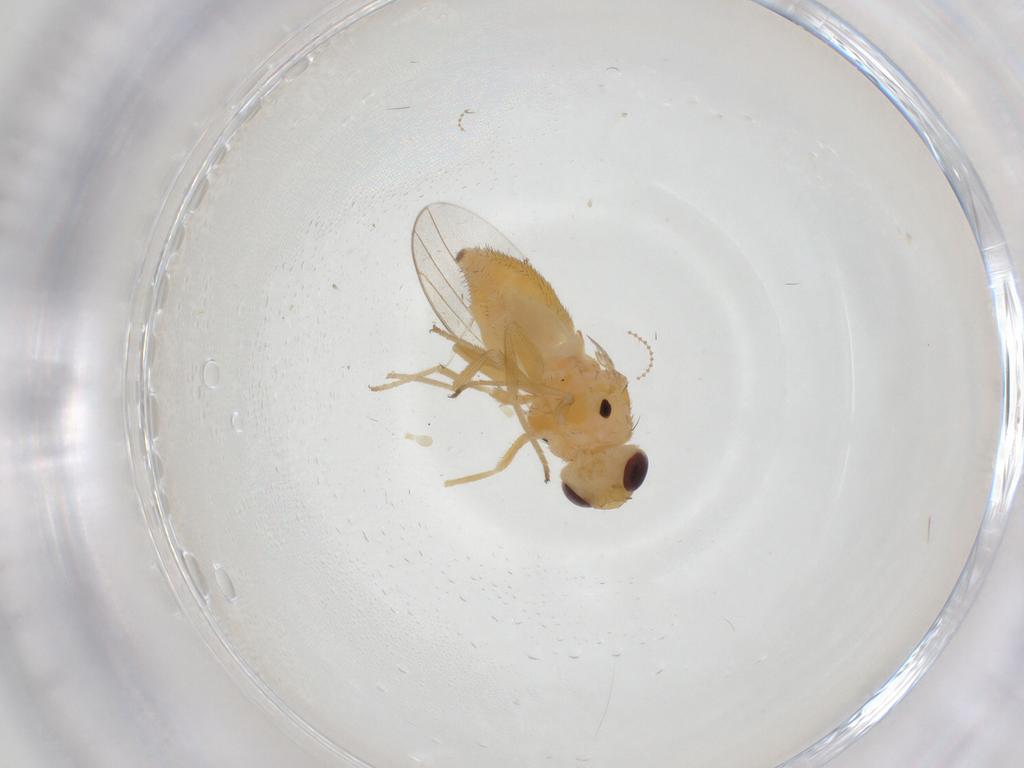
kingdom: Animalia
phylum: Arthropoda
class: Insecta
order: Diptera
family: Chloropidae
